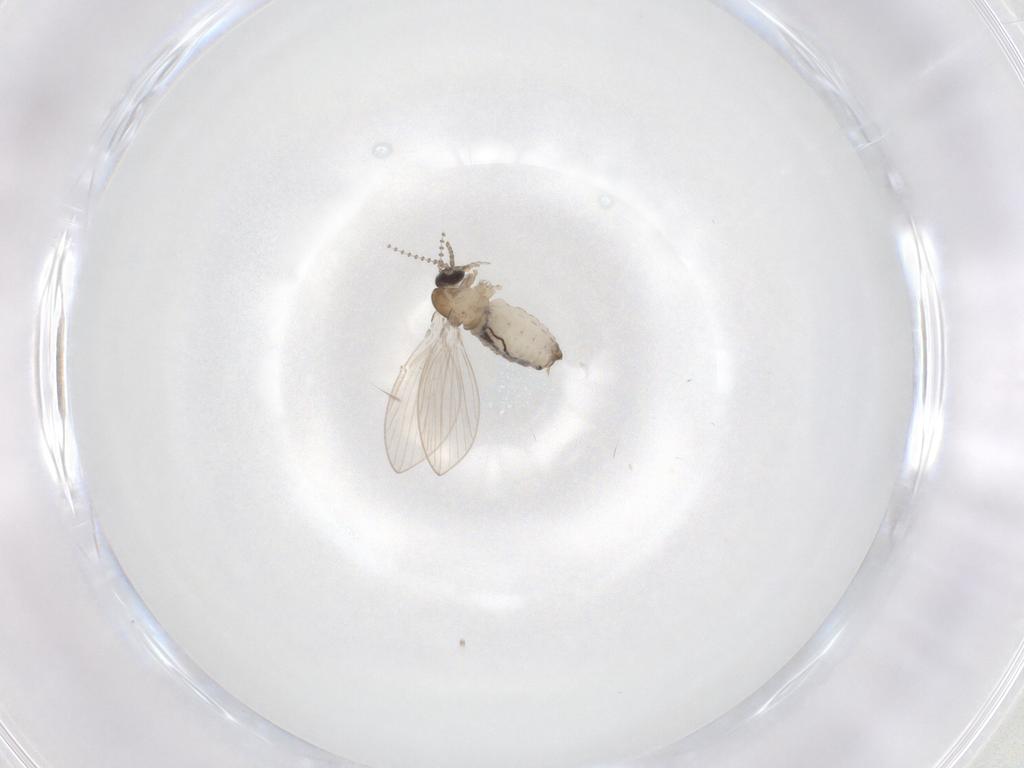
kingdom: Animalia
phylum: Arthropoda
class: Insecta
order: Diptera
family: Psychodidae
